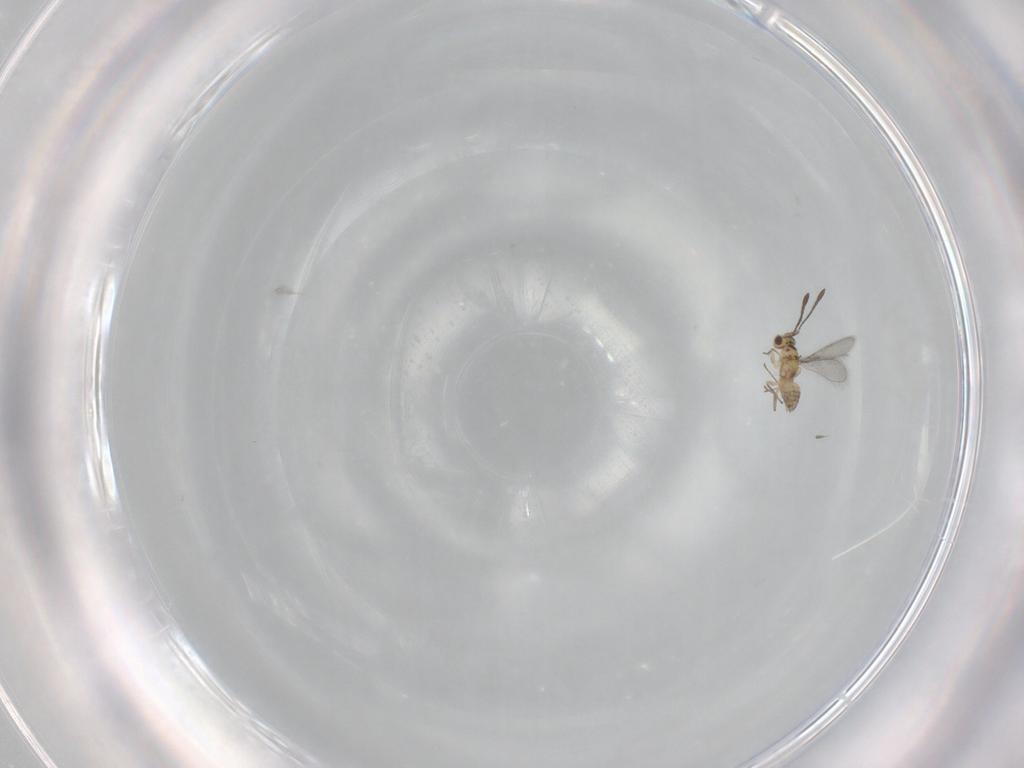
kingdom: Animalia
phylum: Arthropoda
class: Insecta
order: Hymenoptera
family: Mymaridae
